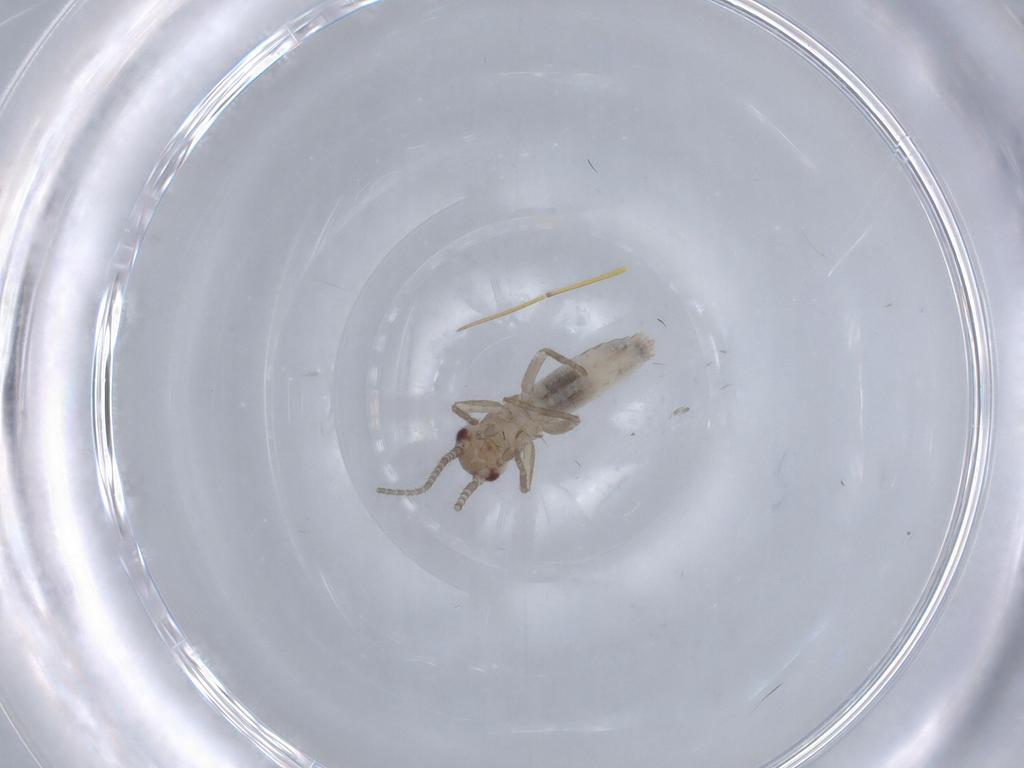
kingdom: Animalia
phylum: Arthropoda
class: Insecta
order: Orthoptera
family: Mogoplistidae
